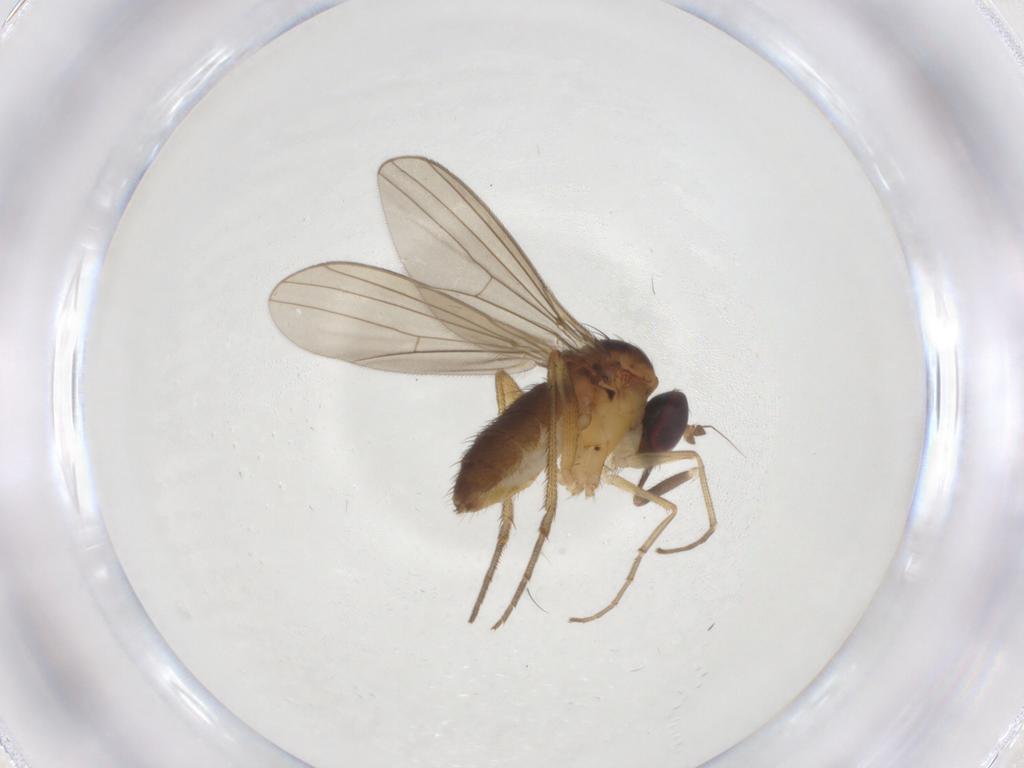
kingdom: Animalia
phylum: Arthropoda
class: Insecta
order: Diptera
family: Dolichopodidae
